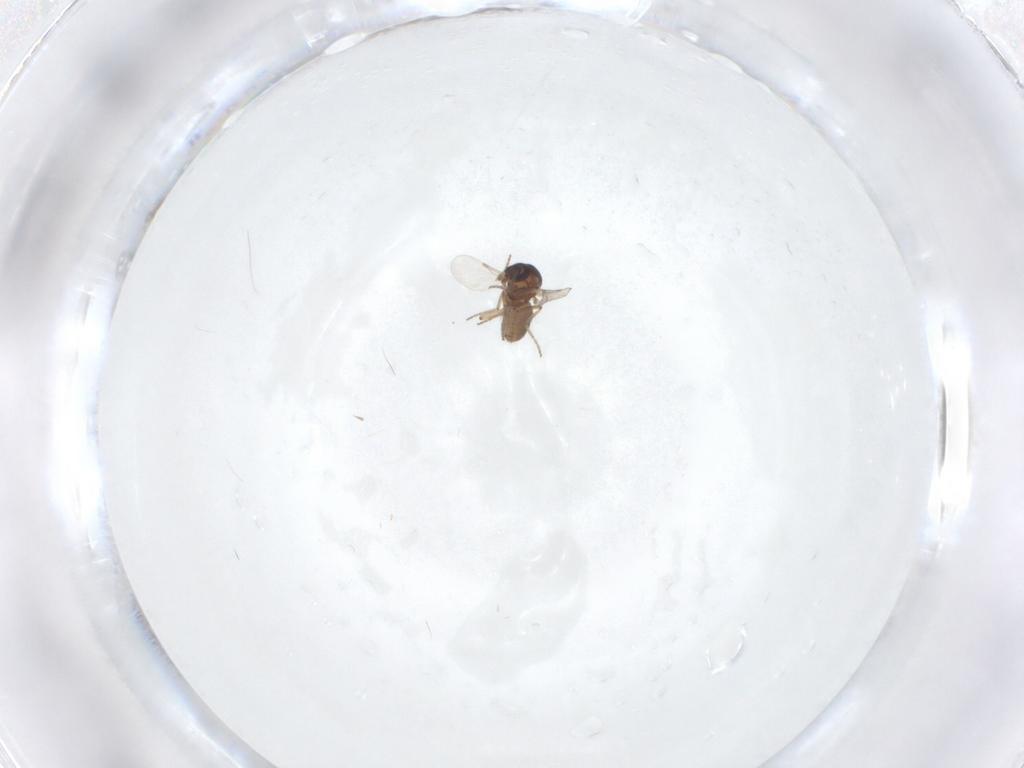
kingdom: Animalia
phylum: Arthropoda
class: Insecta
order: Diptera
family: Ceratopogonidae
